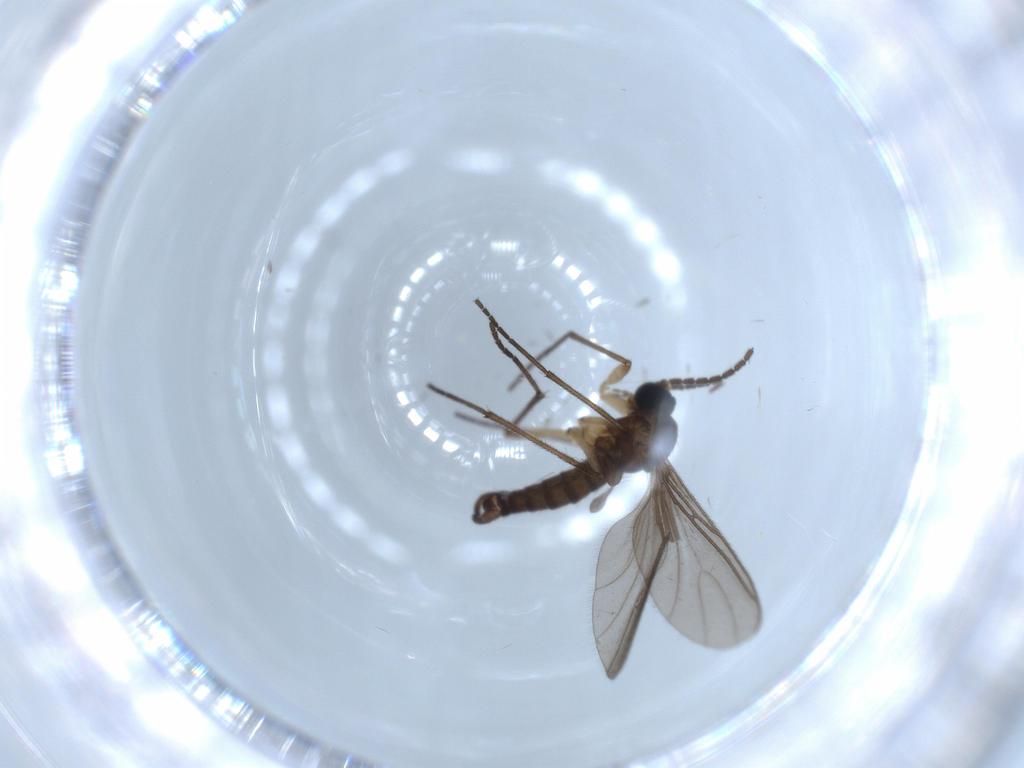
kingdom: Animalia
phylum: Arthropoda
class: Insecta
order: Diptera
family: Sciaridae
